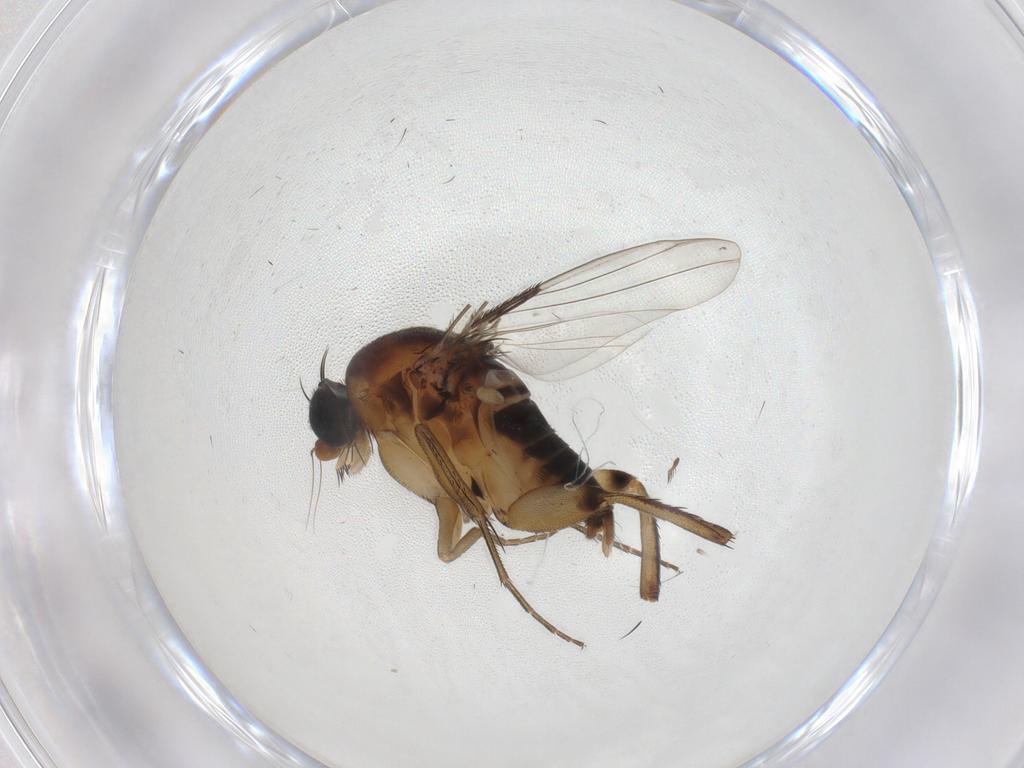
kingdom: Animalia
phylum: Arthropoda
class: Insecta
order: Diptera
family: Phoridae
